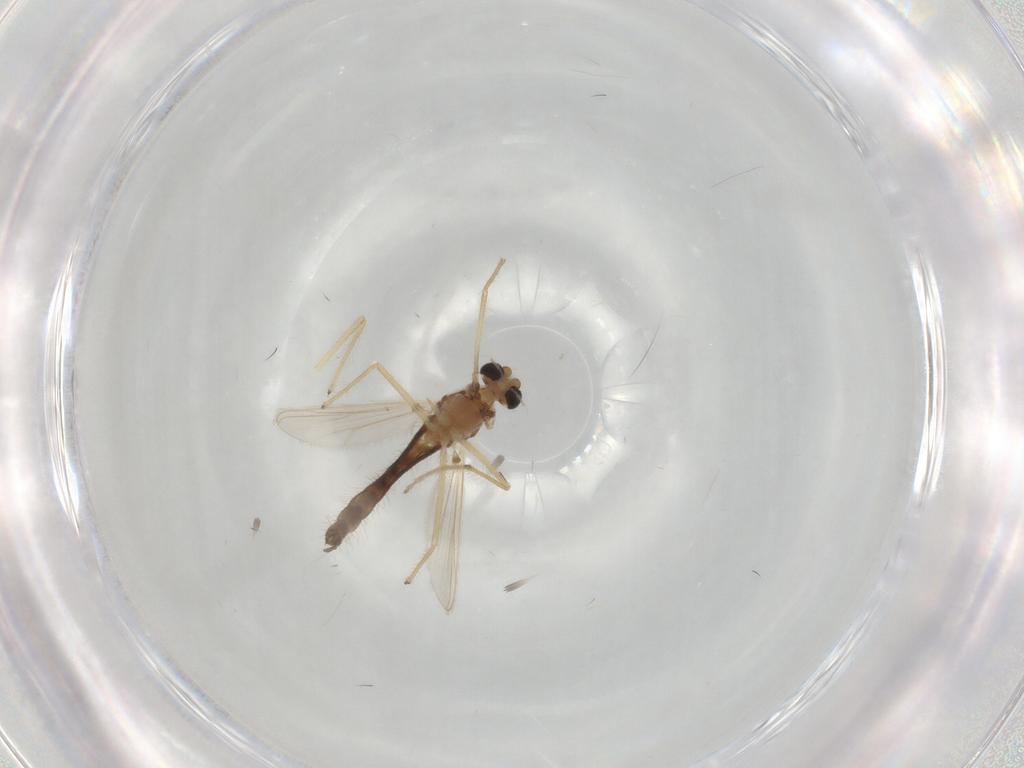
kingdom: Animalia
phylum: Arthropoda
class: Insecta
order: Diptera
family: Chironomidae
